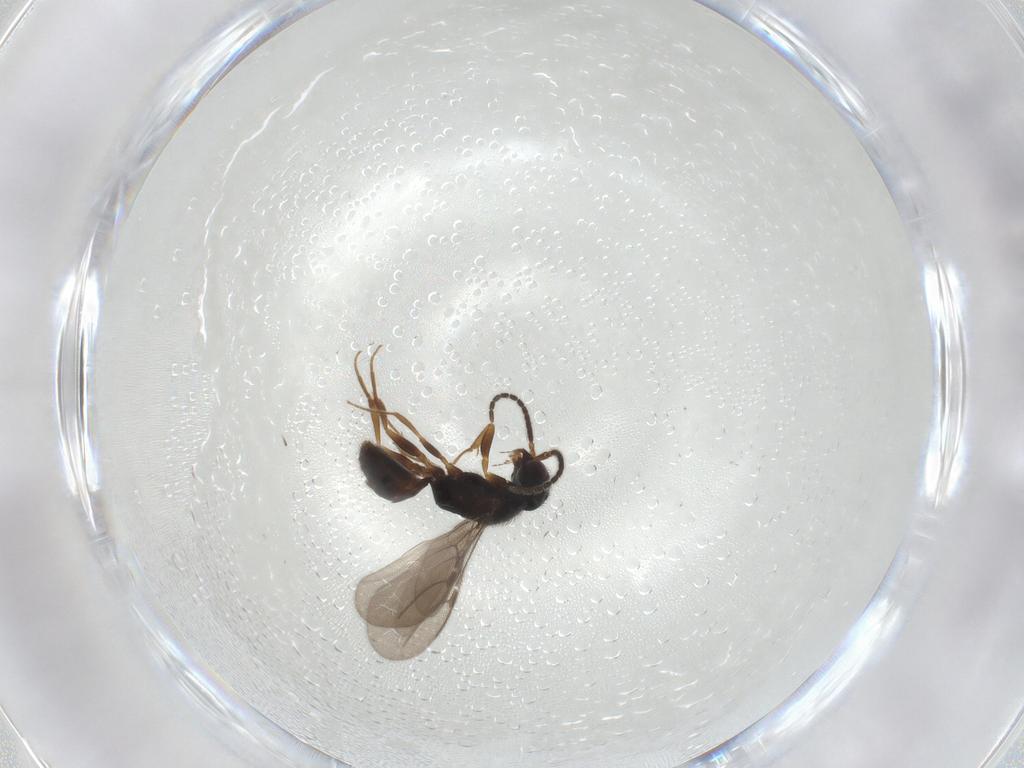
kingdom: Animalia
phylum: Arthropoda
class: Insecta
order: Hymenoptera
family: Bethylidae
